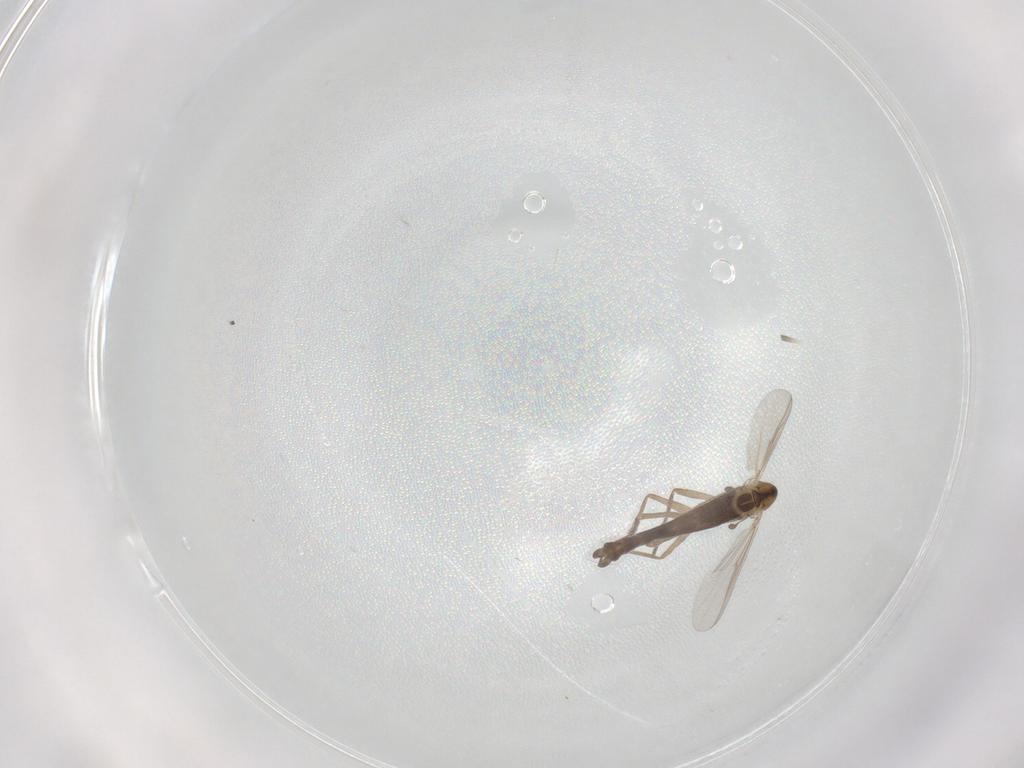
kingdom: Animalia
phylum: Arthropoda
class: Insecta
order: Diptera
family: Chironomidae
